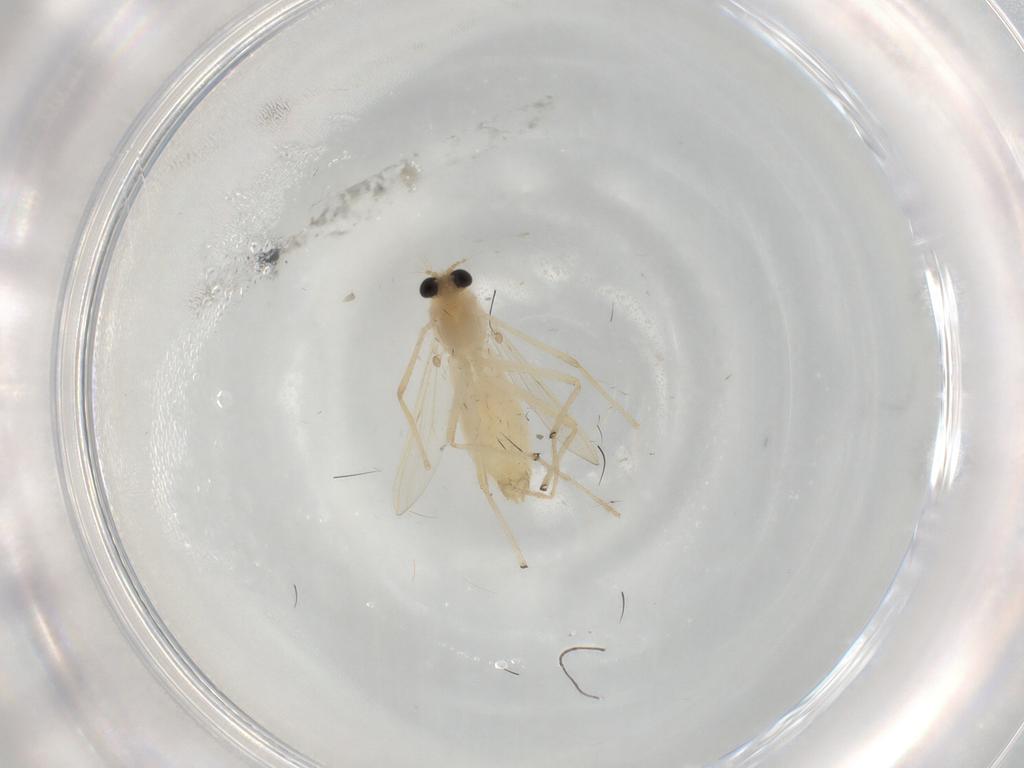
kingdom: Animalia
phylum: Arthropoda
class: Insecta
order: Diptera
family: Chironomidae
